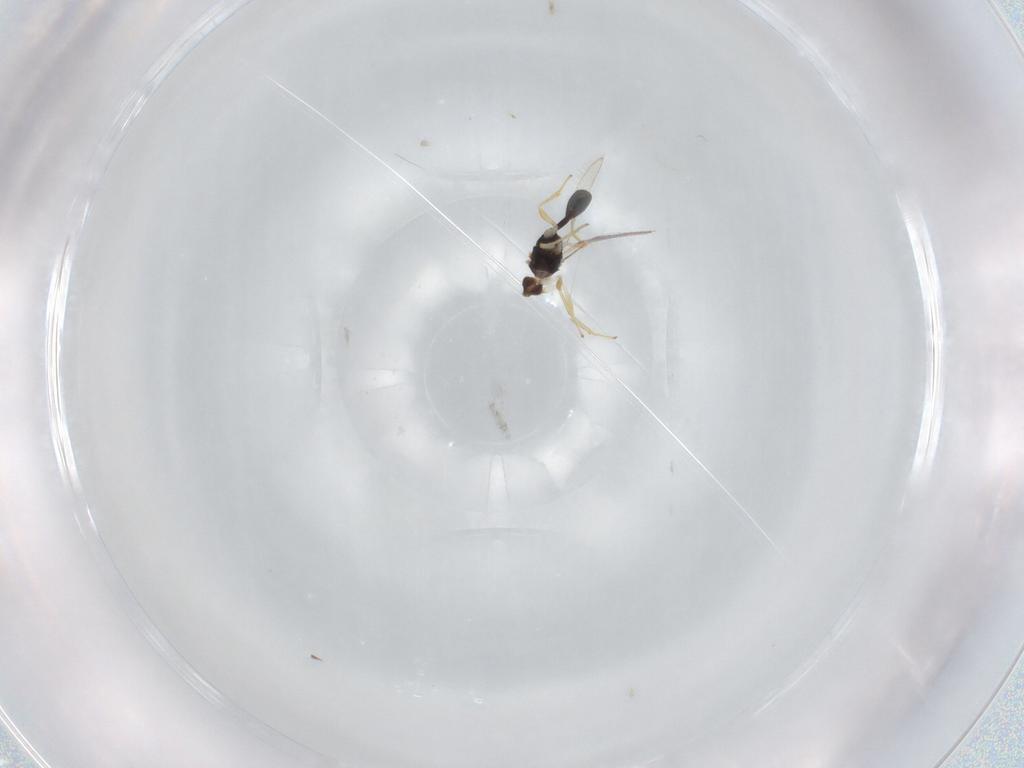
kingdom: Animalia
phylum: Arthropoda
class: Insecta
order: Hymenoptera
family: Diparidae
